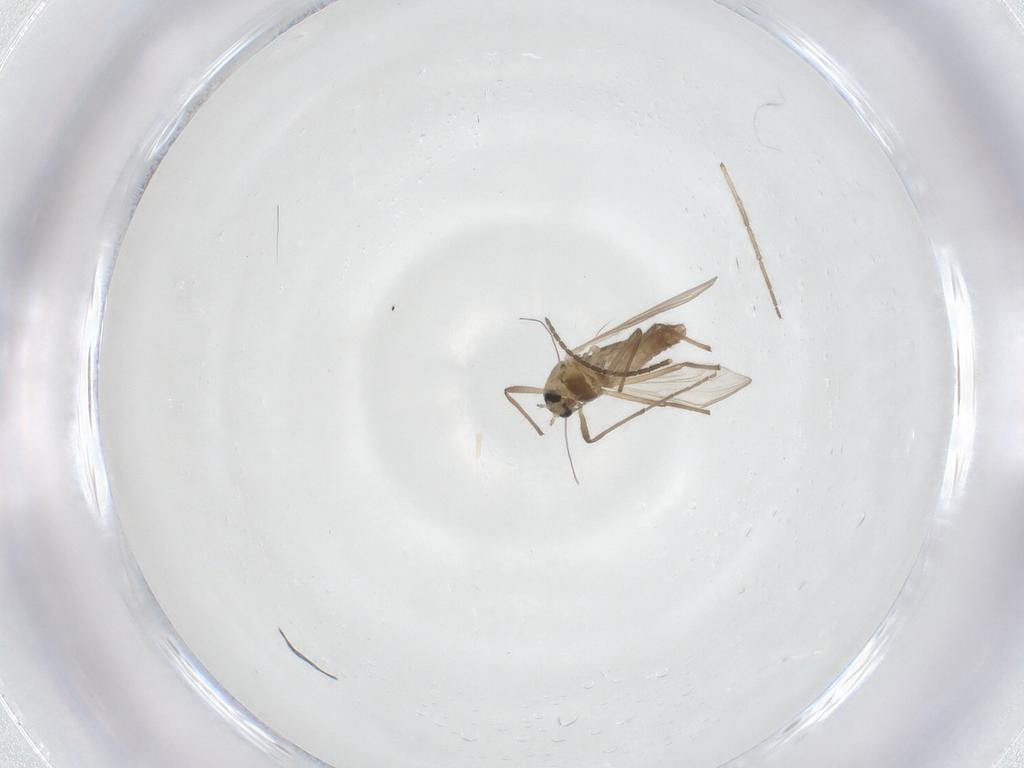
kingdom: Animalia
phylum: Arthropoda
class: Insecta
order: Diptera
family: Chironomidae
